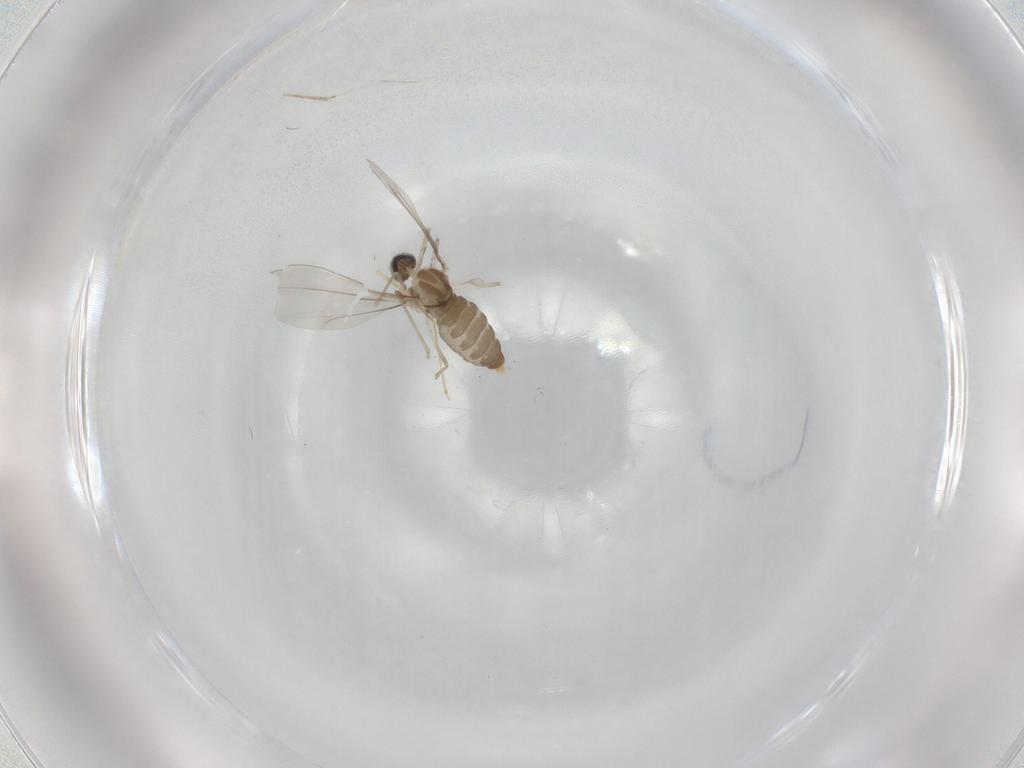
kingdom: Animalia
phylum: Arthropoda
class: Insecta
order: Diptera
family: Cecidomyiidae
